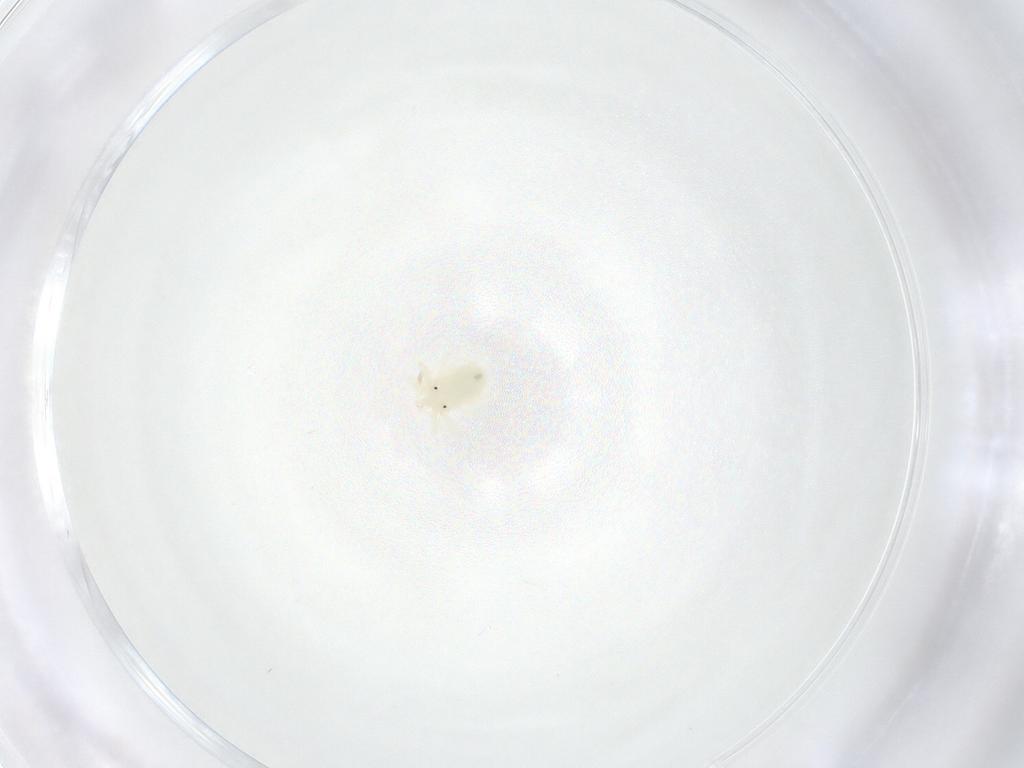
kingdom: Animalia
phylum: Arthropoda
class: Arachnida
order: Trombidiformes
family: Eupodidae
